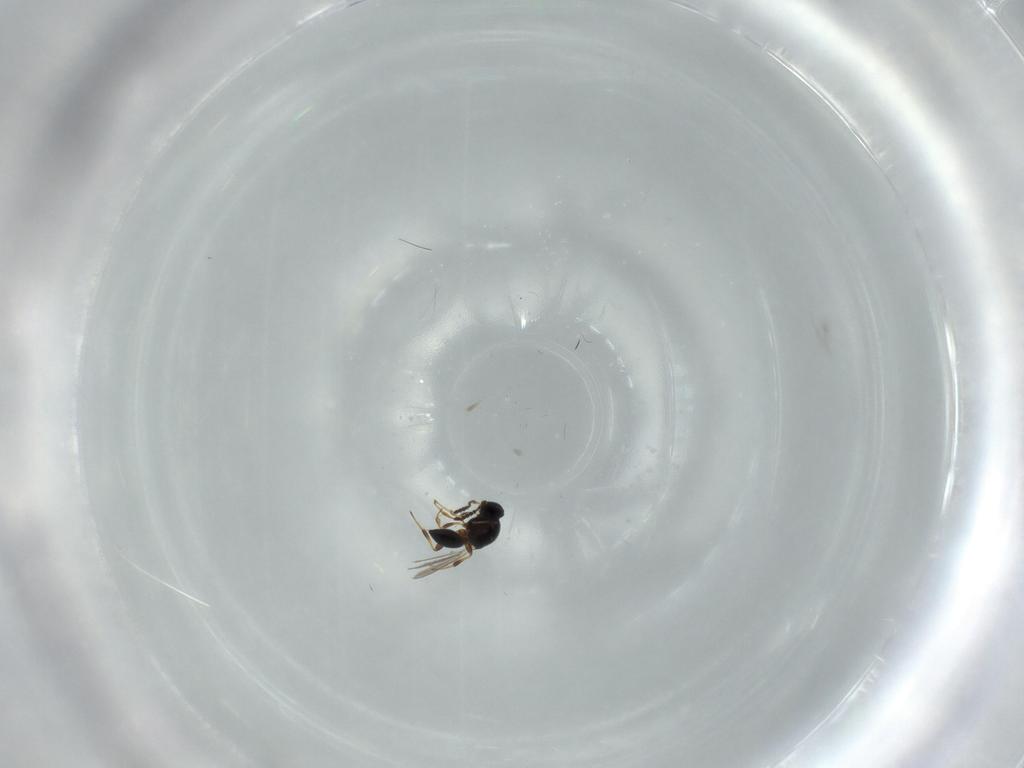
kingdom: Animalia
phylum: Arthropoda
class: Insecta
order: Hymenoptera
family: Platygastridae
